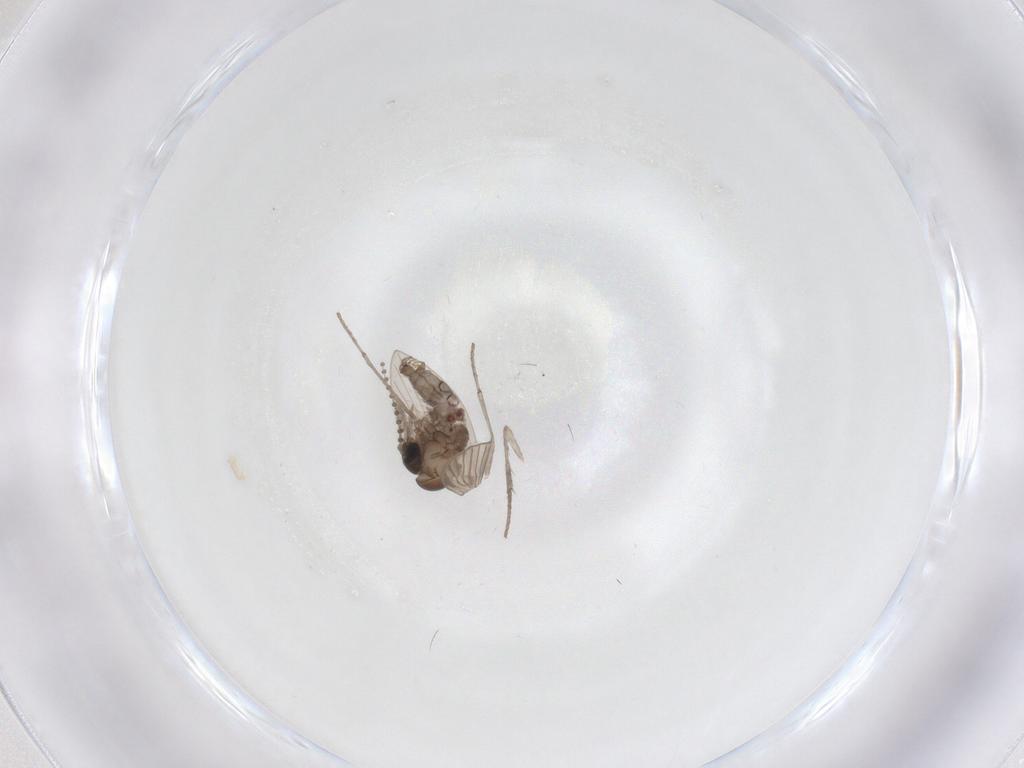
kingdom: Animalia
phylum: Arthropoda
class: Insecta
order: Diptera
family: Psychodidae
